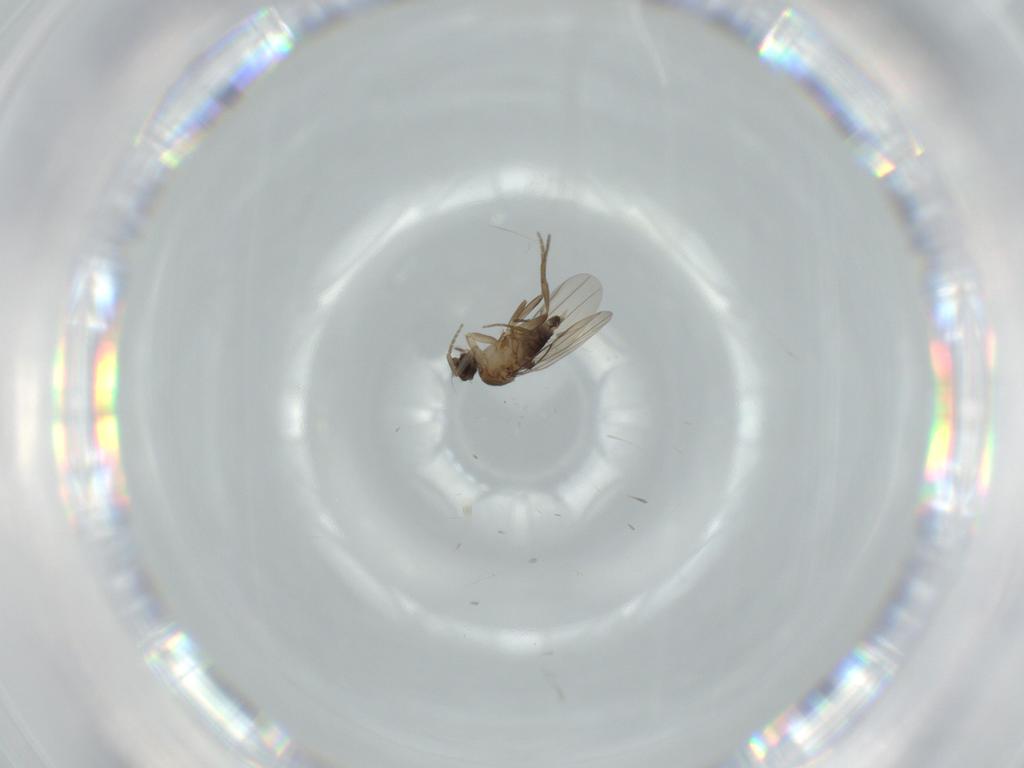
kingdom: Animalia
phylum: Arthropoda
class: Insecta
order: Diptera
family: Phoridae
